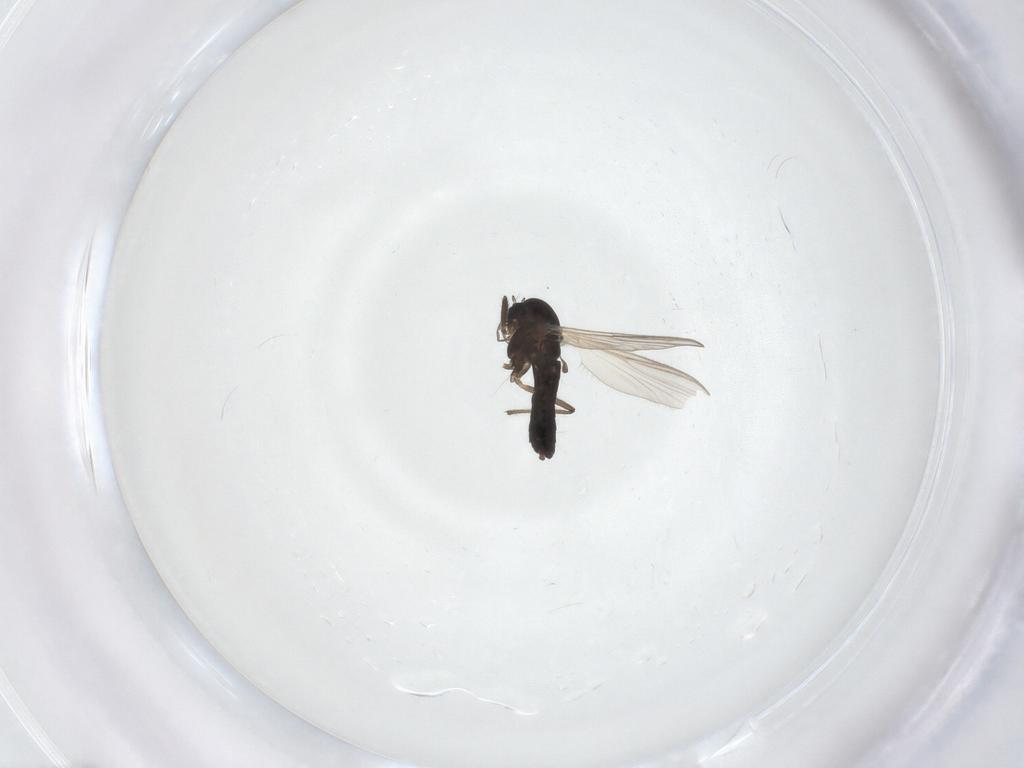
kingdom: Animalia
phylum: Arthropoda
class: Insecta
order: Diptera
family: Chironomidae
